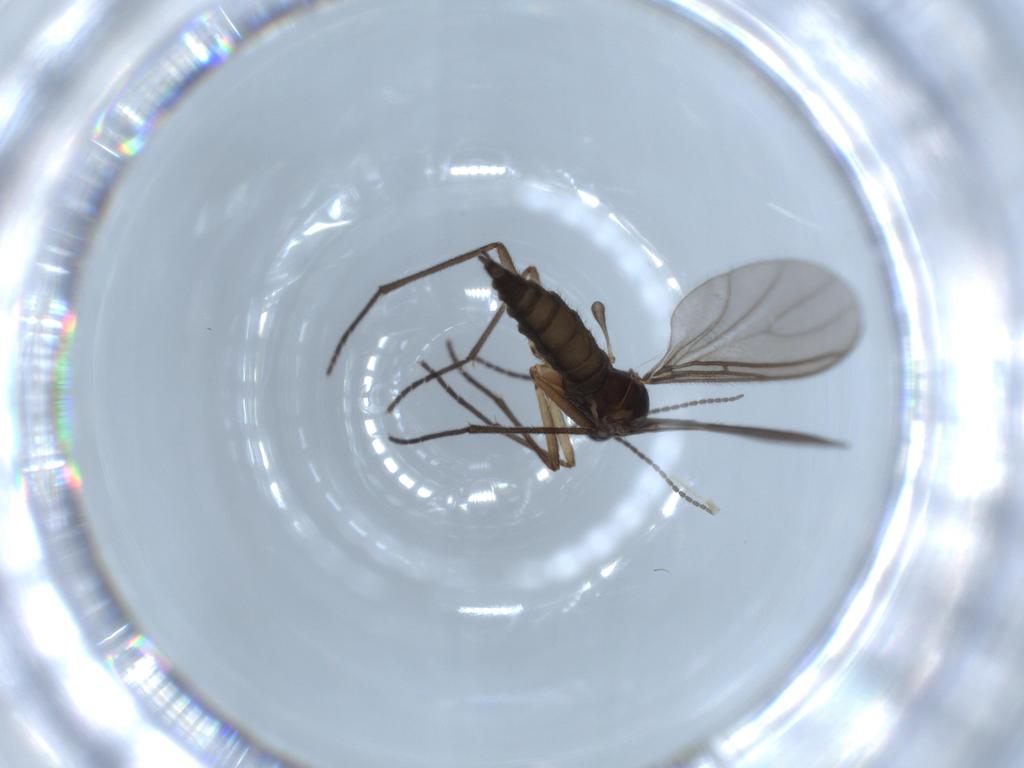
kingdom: Animalia
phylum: Arthropoda
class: Insecta
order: Diptera
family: Sciaridae
